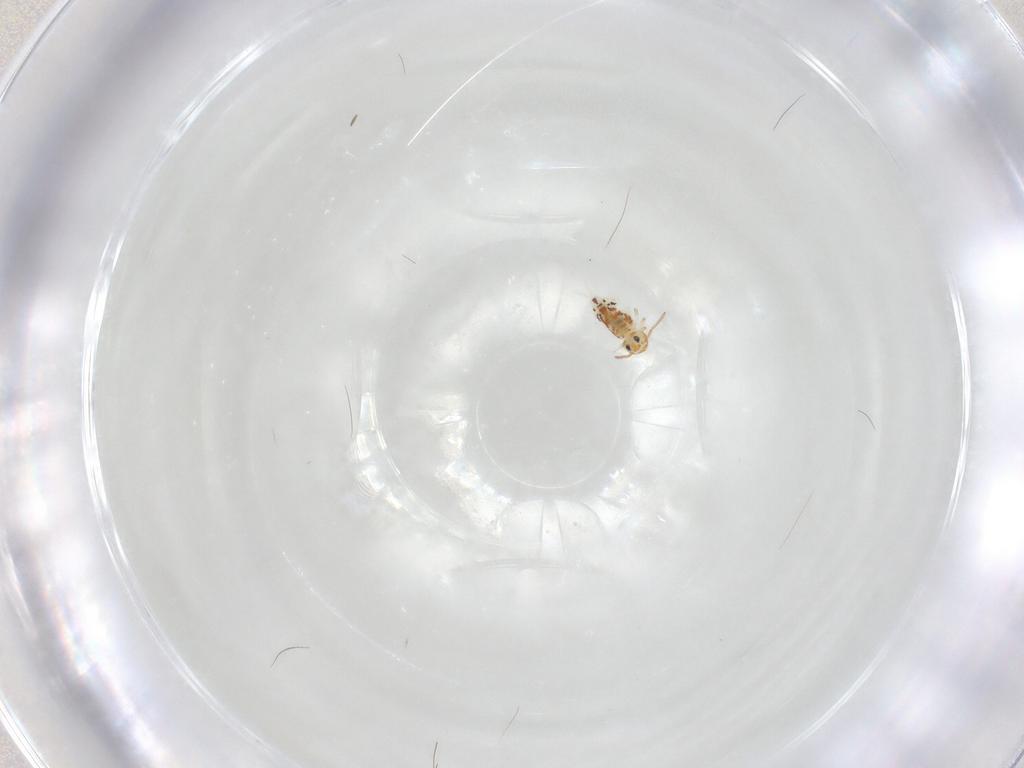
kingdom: Animalia
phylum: Arthropoda
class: Collembola
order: Symphypleona
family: Bourletiellidae
